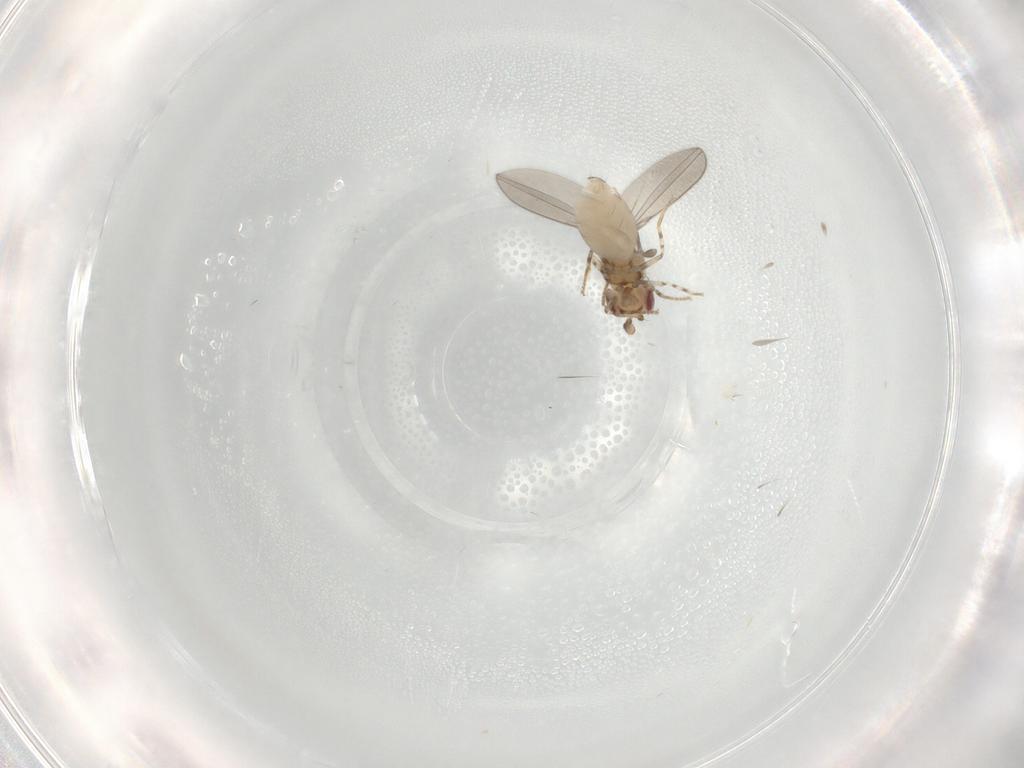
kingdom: Animalia
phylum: Arthropoda
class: Insecta
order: Diptera
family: Asteiidae
